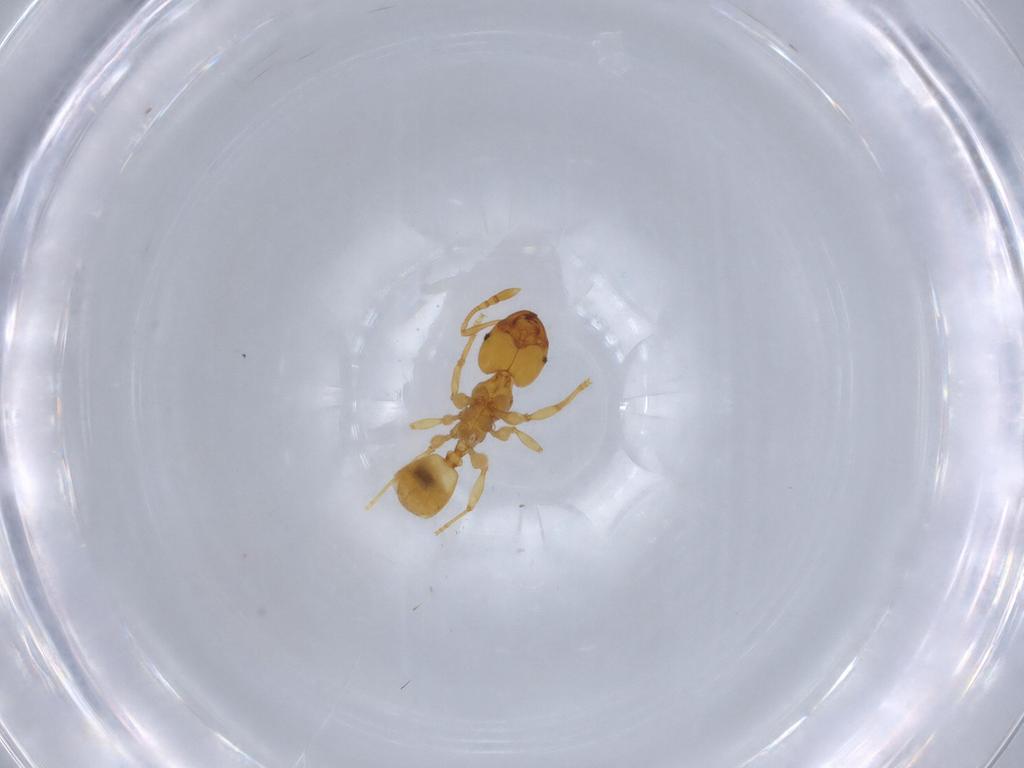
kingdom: Animalia
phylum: Arthropoda
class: Insecta
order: Hymenoptera
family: Formicidae
